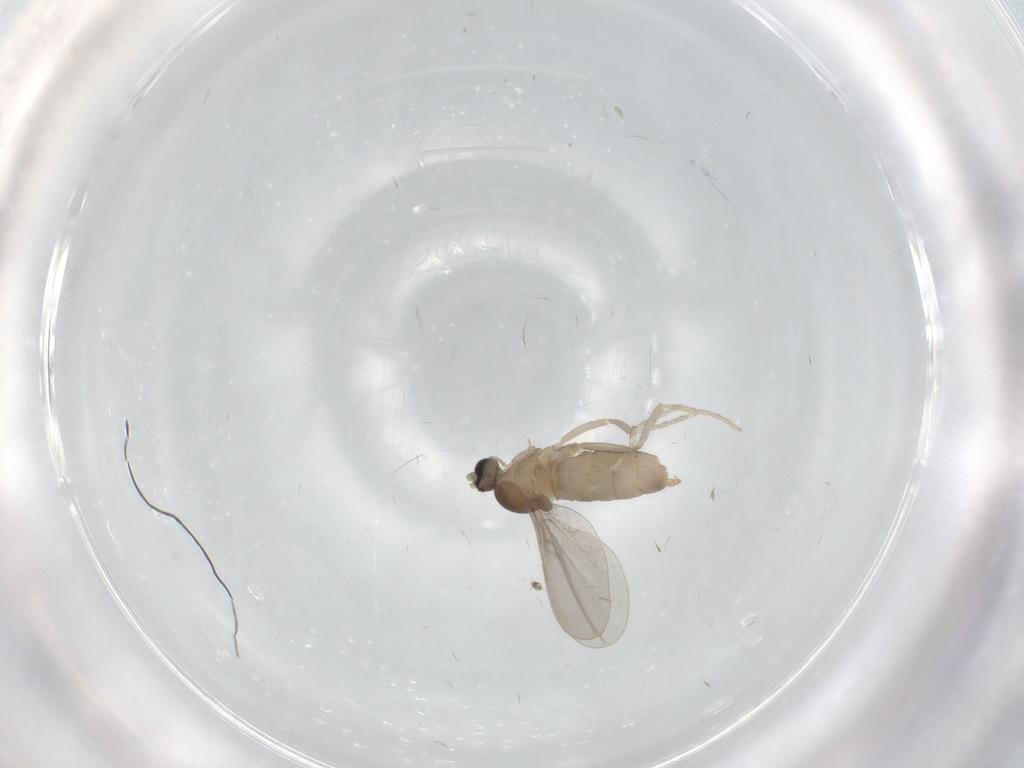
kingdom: Animalia
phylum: Arthropoda
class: Insecta
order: Diptera
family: Cecidomyiidae
